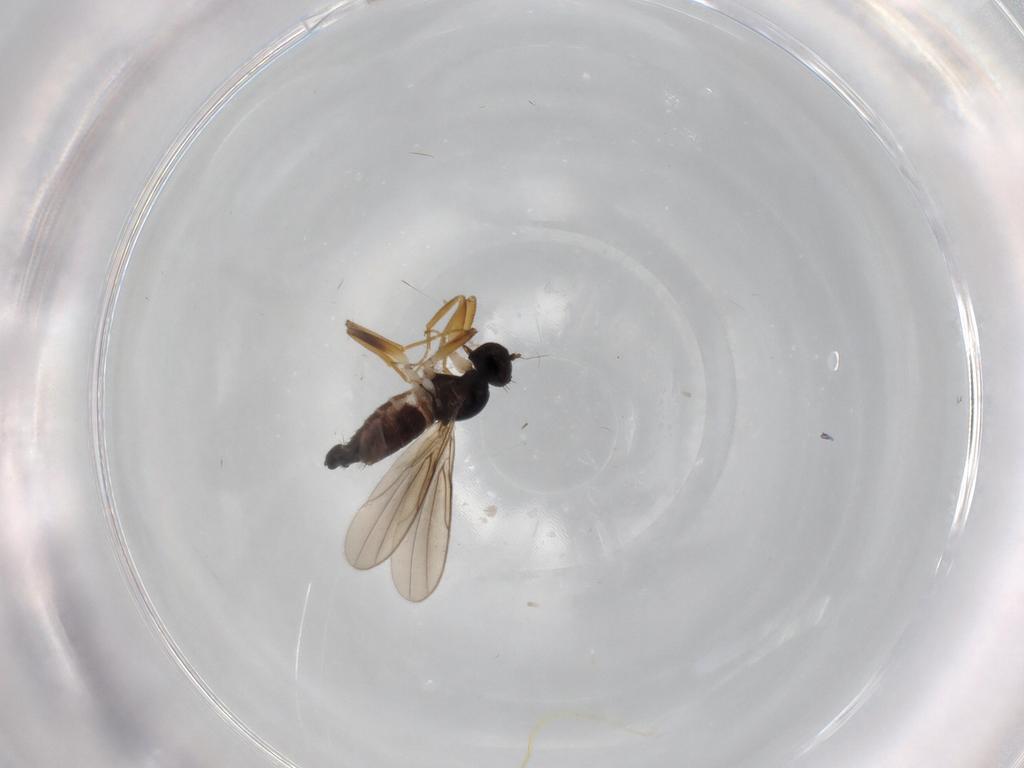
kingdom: Animalia
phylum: Arthropoda
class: Insecta
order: Diptera
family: Hybotidae
